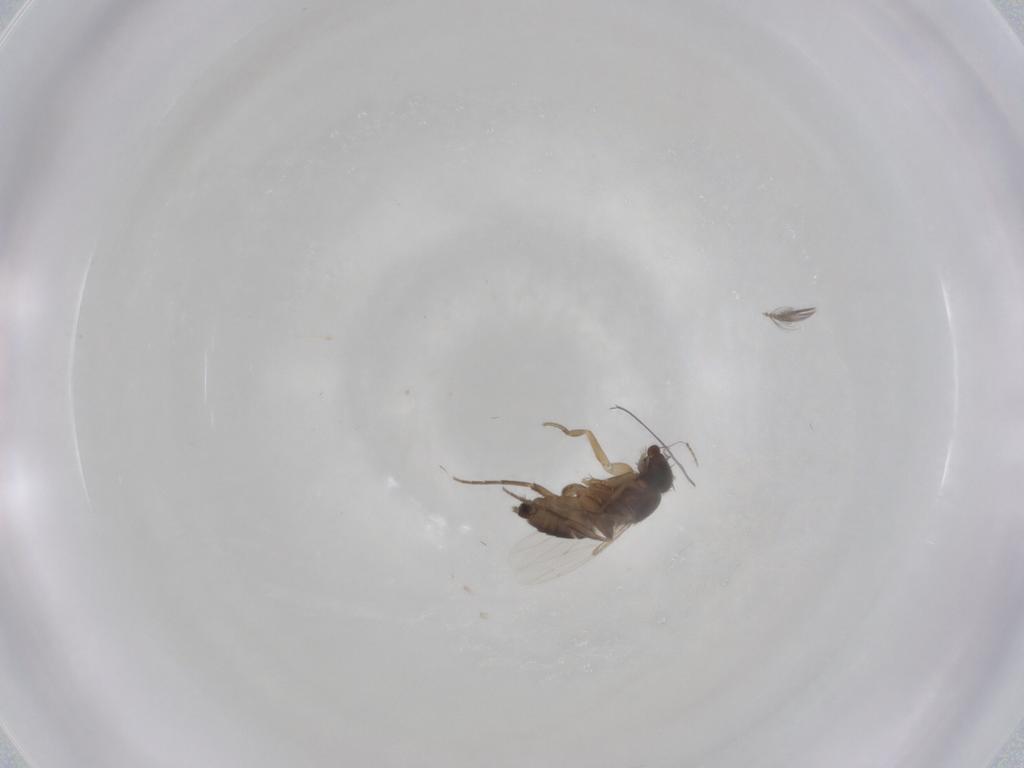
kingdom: Animalia
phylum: Arthropoda
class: Insecta
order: Diptera
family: Phoridae
